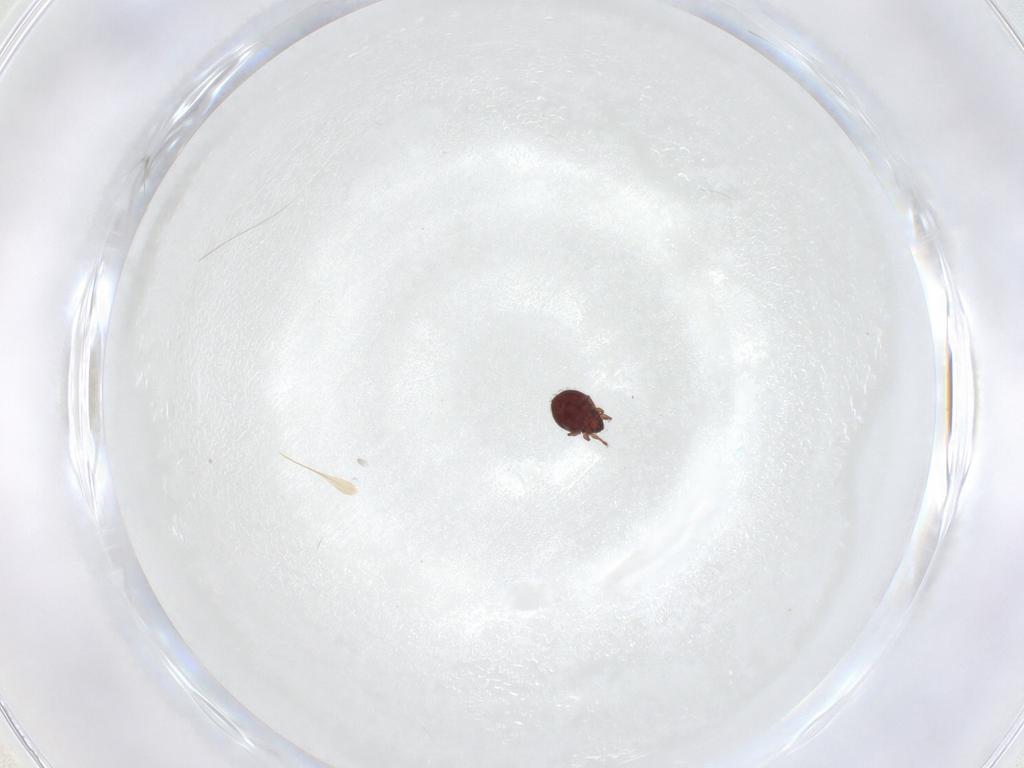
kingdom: Animalia
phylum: Arthropoda
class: Arachnida
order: Sarcoptiformes
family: Scheloribatidae
